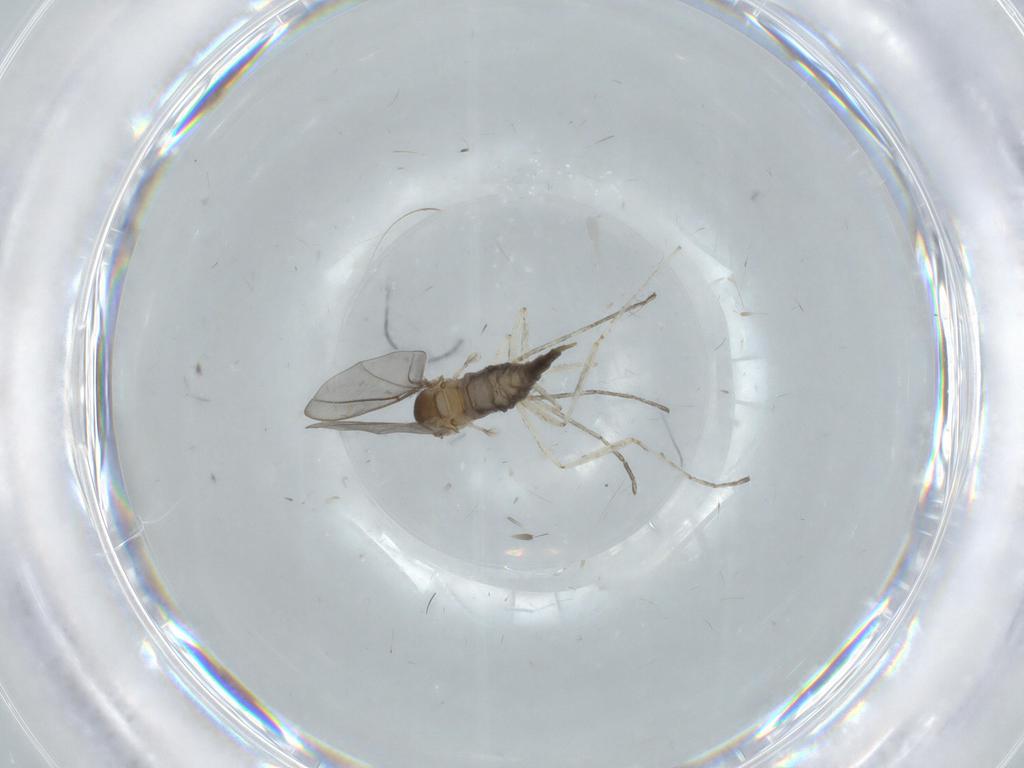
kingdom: Animalia
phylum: Arthropoda
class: Insecta
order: Diptera
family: Cecidomyiidae
